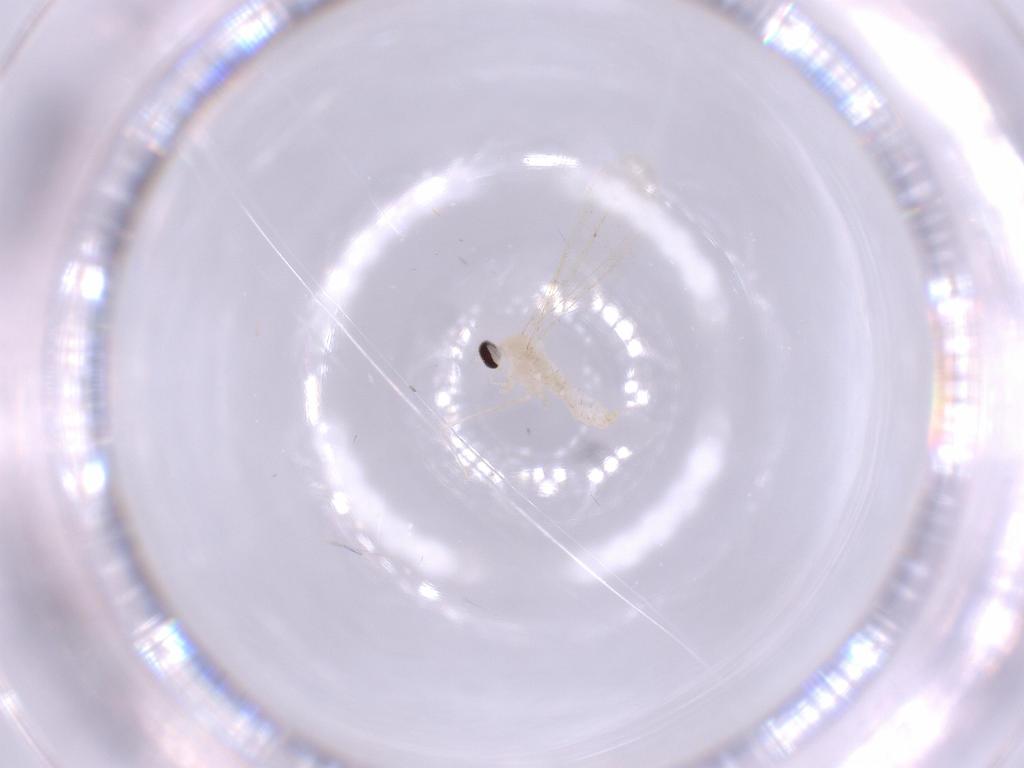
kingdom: Animalia
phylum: Arthropoda
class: Insecta
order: Diptera
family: Cecidomyiidae
